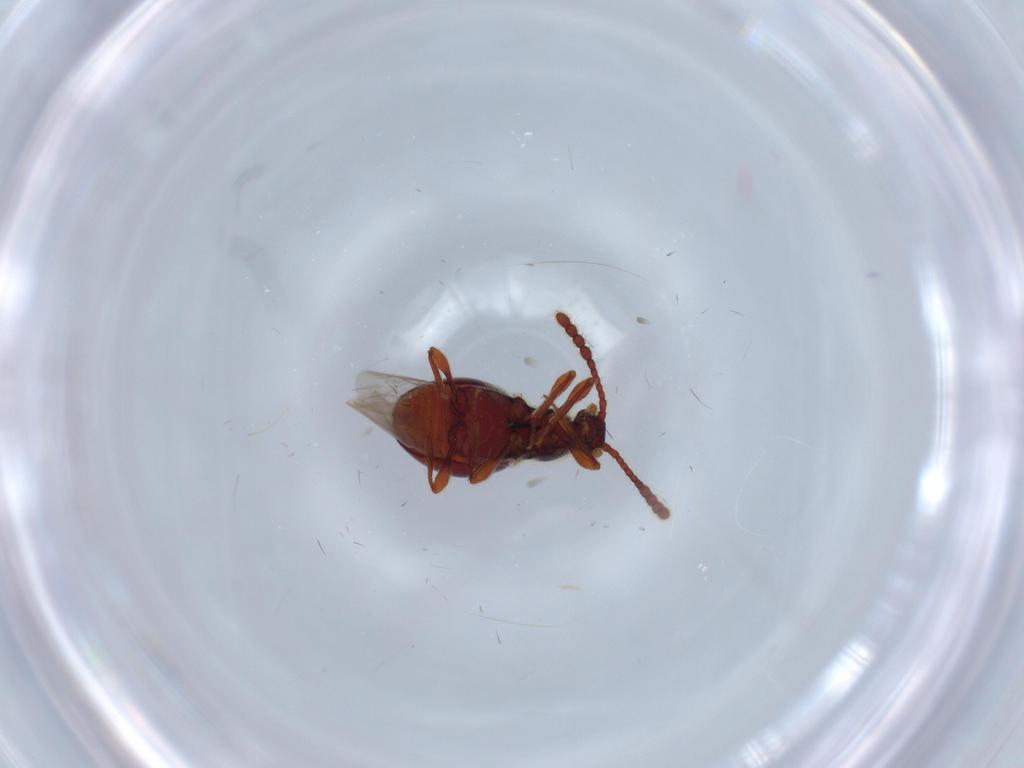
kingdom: Animalia
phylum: Arthropoda
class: Insecta
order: Coleoptera
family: Staphylinidae
